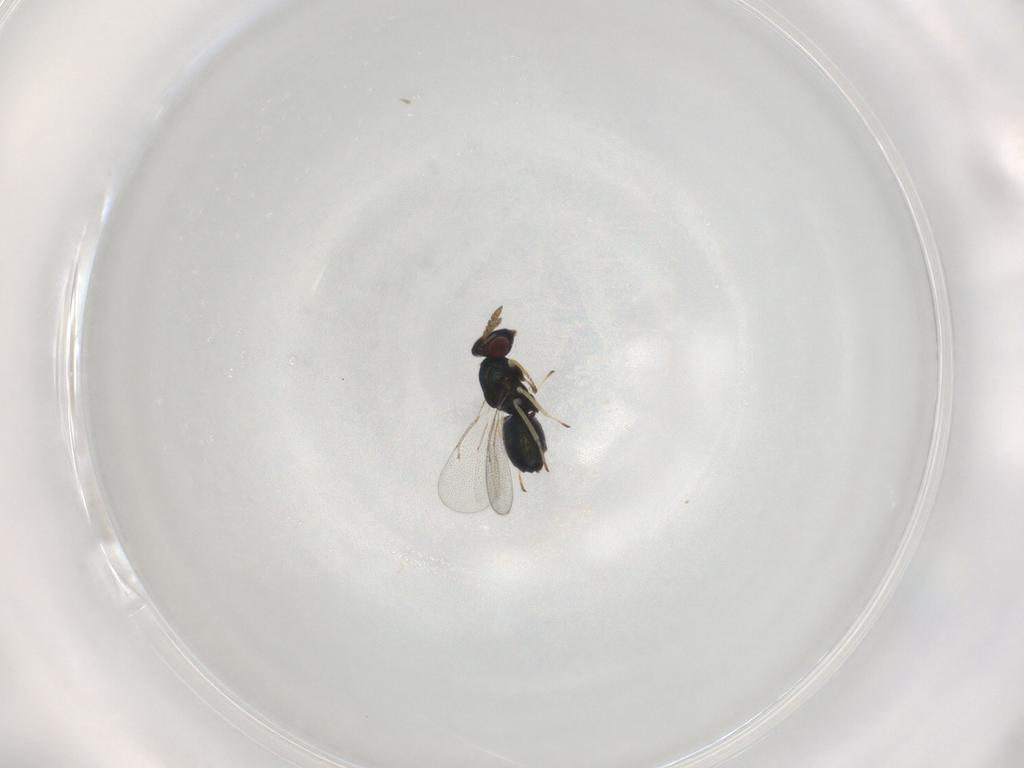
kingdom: Animalia
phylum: Arthropoda
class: Insecta
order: Hymenoptera
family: Eulophidae
